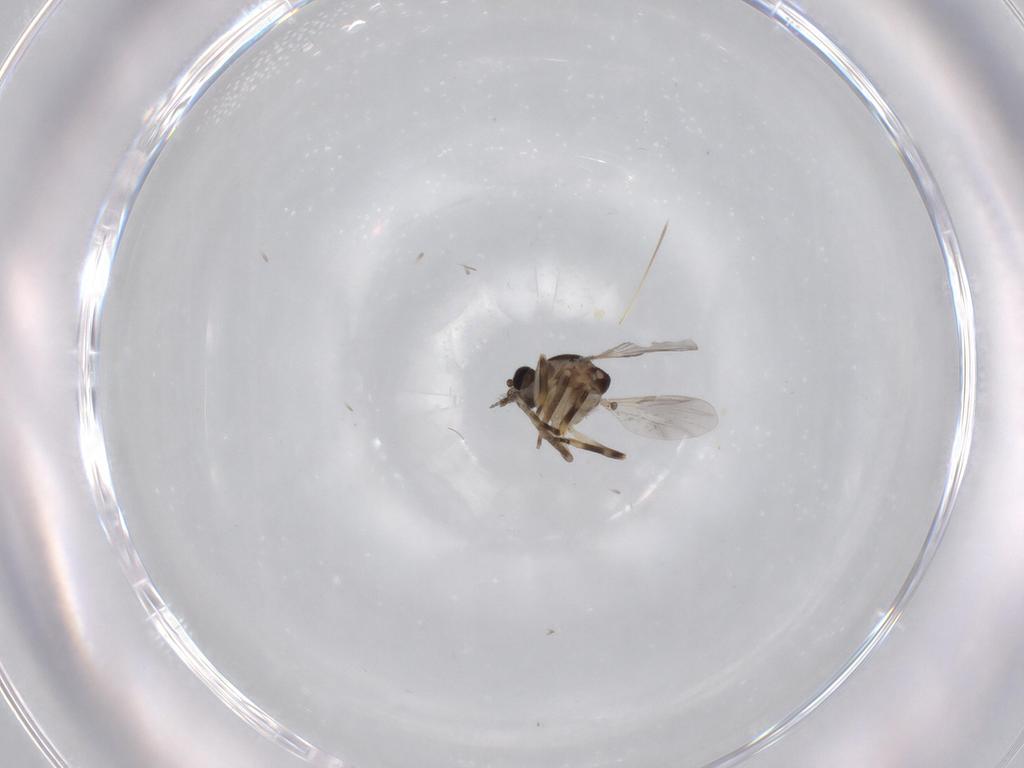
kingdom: Animalia
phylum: Arthropoda
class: Insecta
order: Diptera
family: Ceratopogonidae
